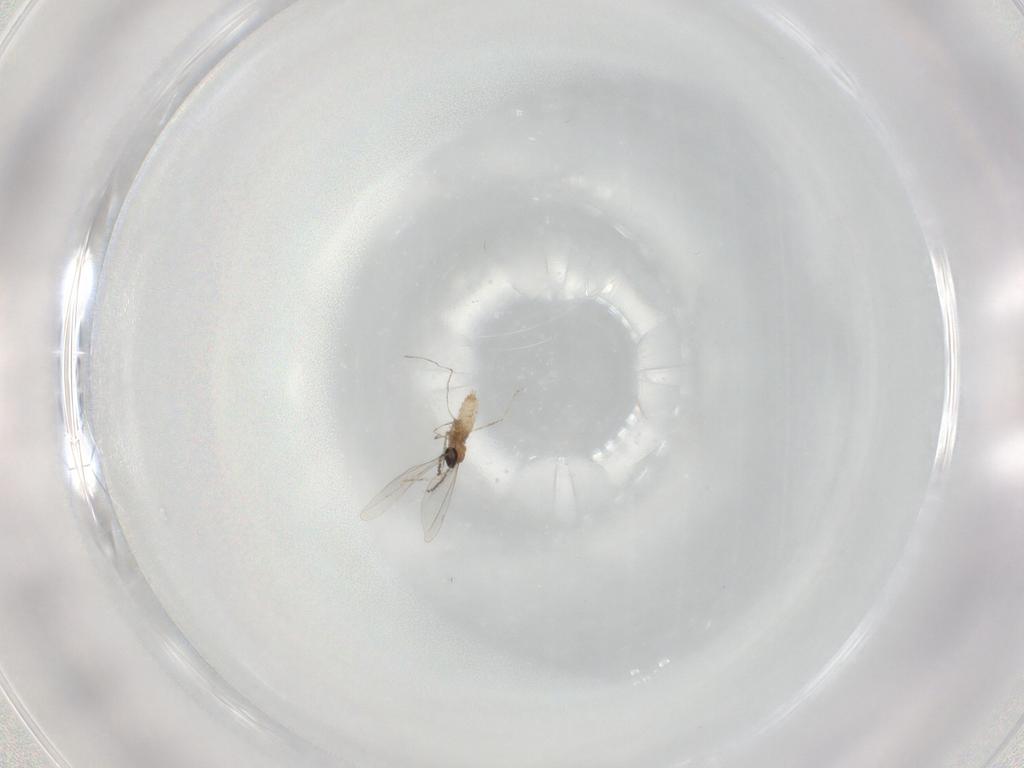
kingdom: Animalia
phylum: Arthropoda
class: Insecta
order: Diptera
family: Cecidomyiidae
